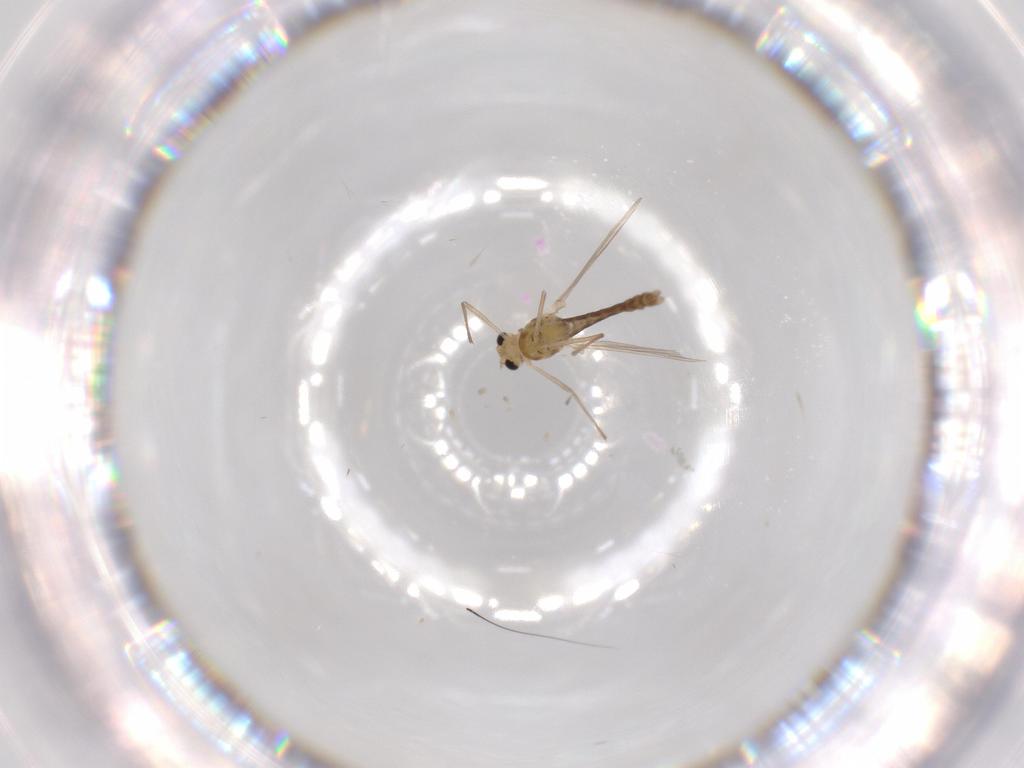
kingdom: Animalia
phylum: Arthropoda
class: Insecta
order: Diptera
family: Chironomidae
